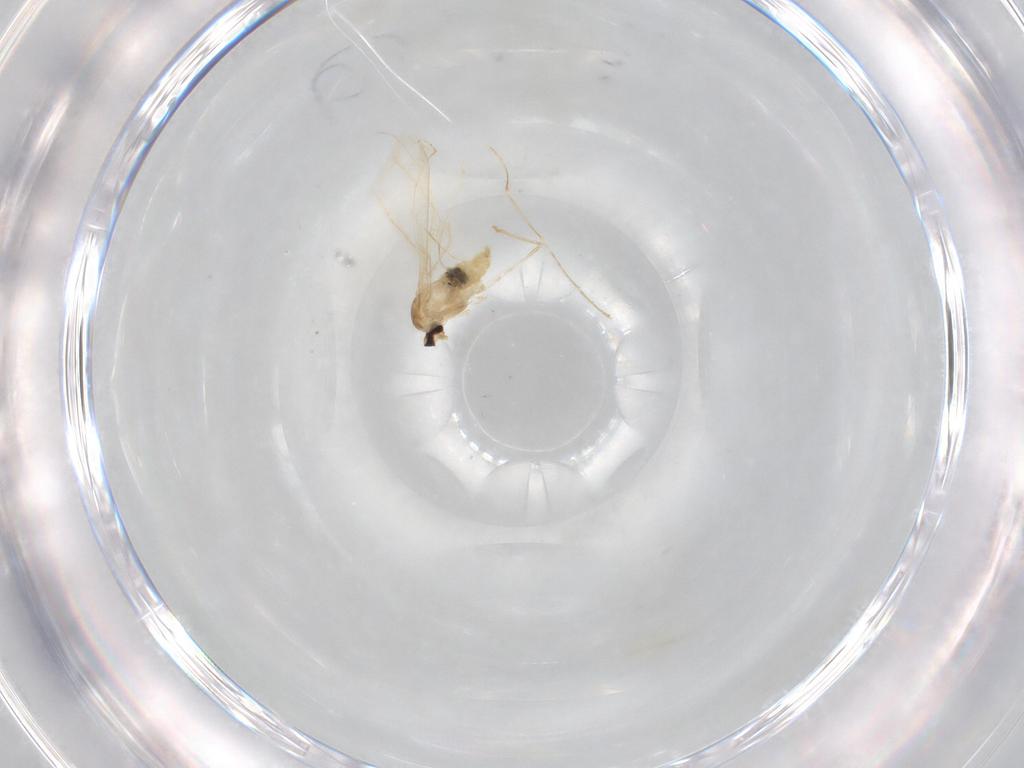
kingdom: Animalia
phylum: Arthropoda
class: Insecta
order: Diptera
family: Cecidomyiidae
